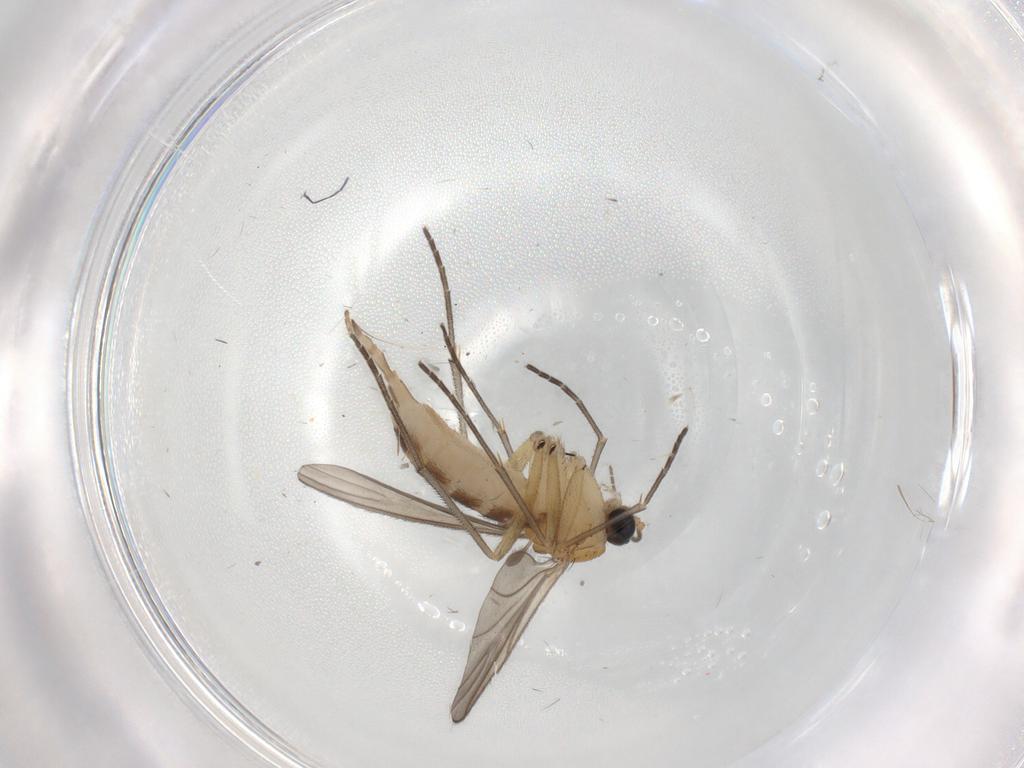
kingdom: Animalia
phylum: Arthropoda
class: Insecta
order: Diptera
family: Sciaridae
